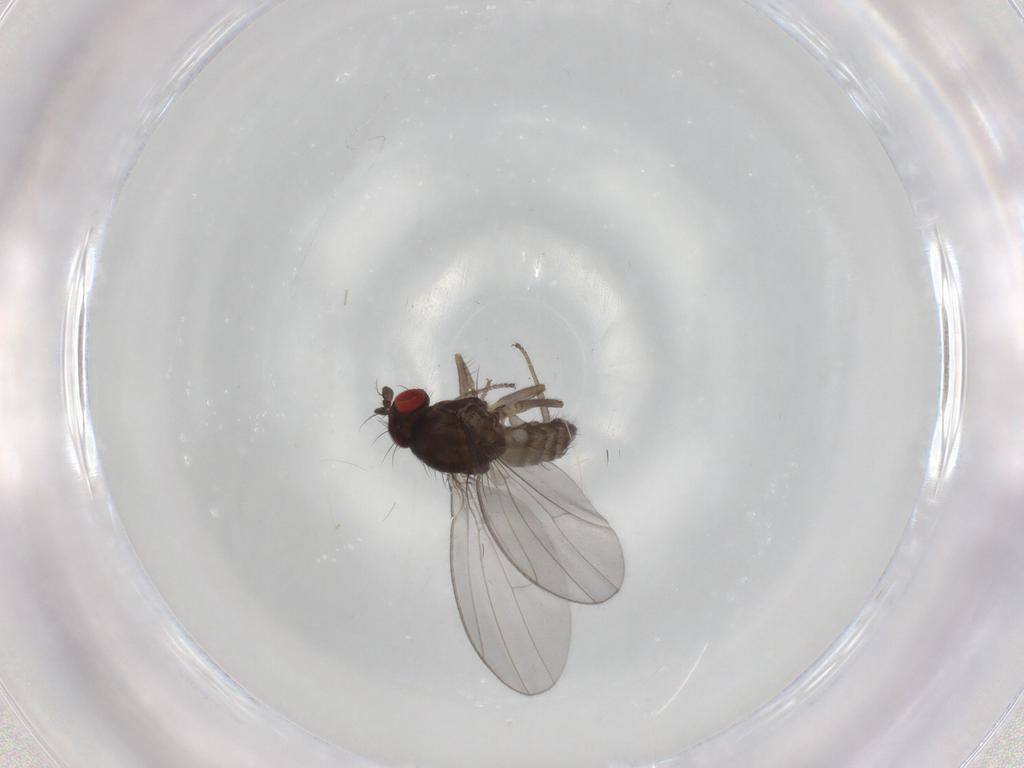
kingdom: Animalia
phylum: Arthropoda
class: Insecta
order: Diptera
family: Drosophilidae
